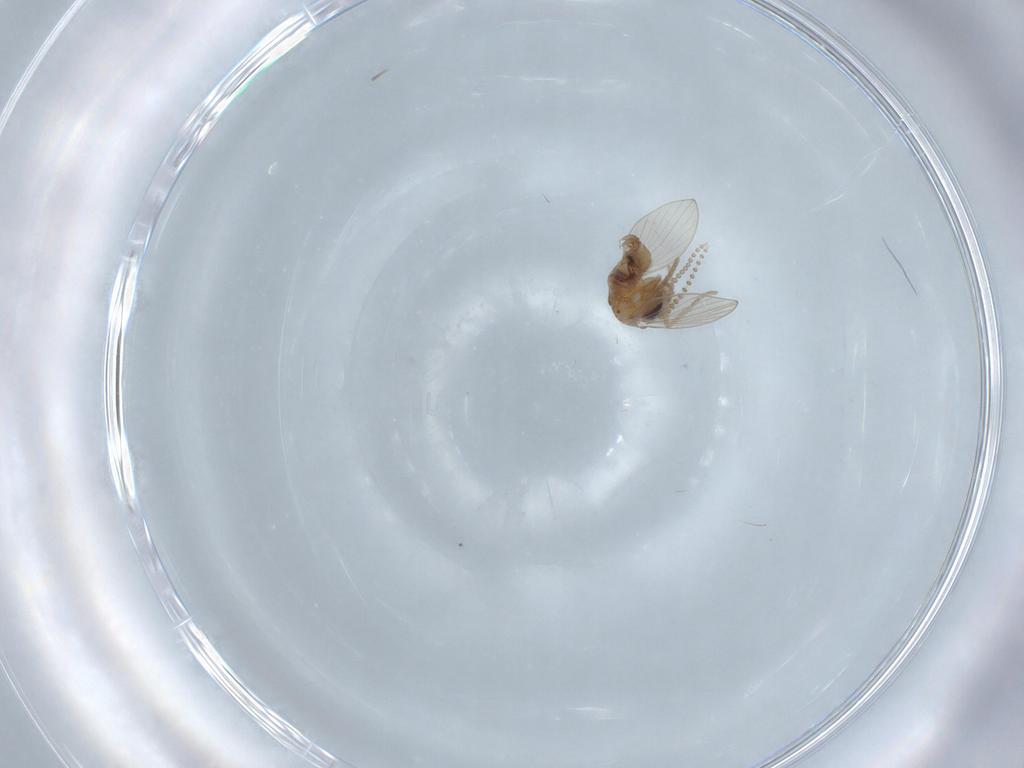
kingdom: Animalia
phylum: Arthropoda
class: Insecta
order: Diptera
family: Psychodidae
